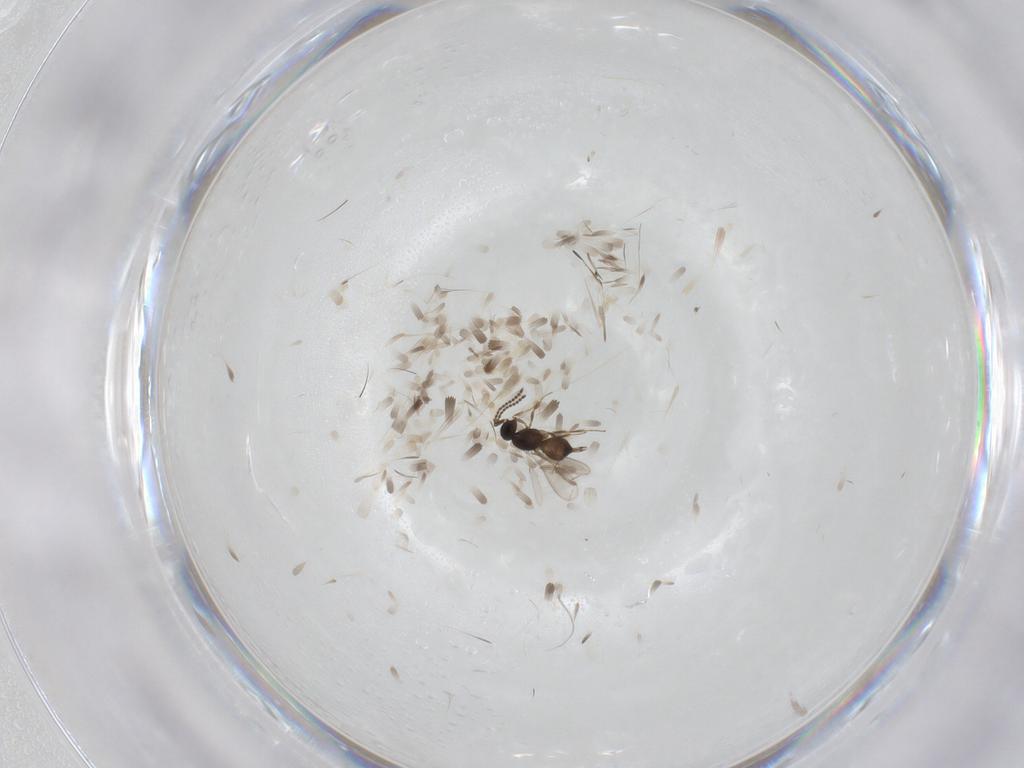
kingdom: Animalia
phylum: Arthropoda
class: Insecta
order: Hymenoptera
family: Scelionidae
